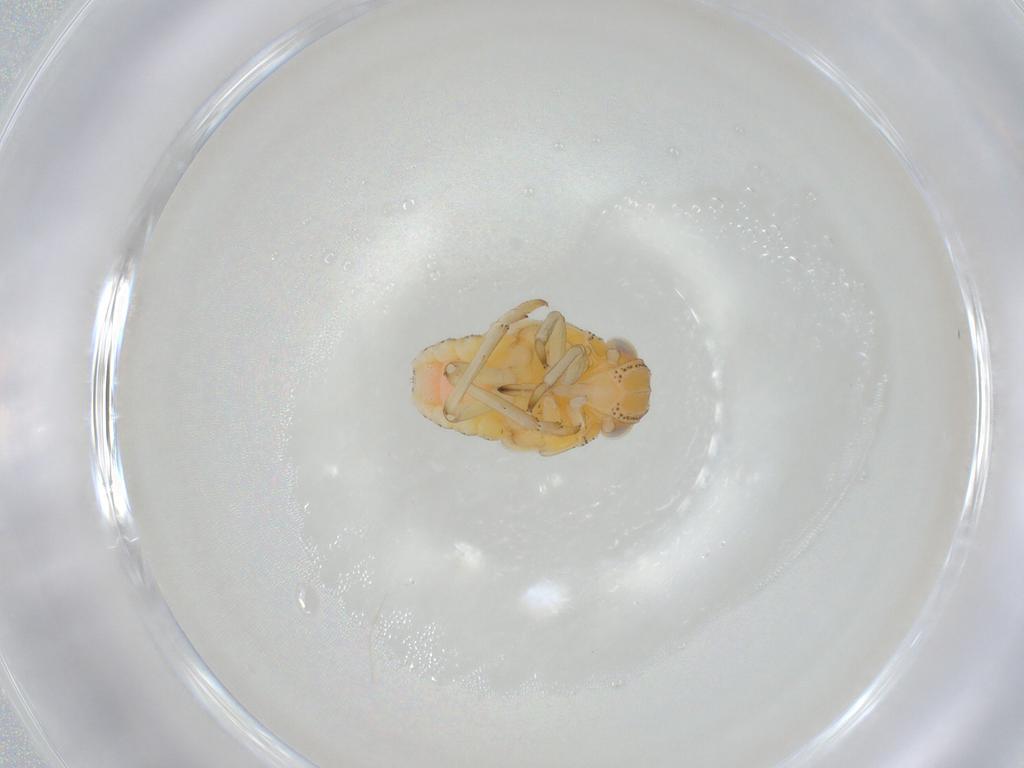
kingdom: Animalia
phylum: Arthropoda
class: Insecta
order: Hemiptera
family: Tropiduchidae
